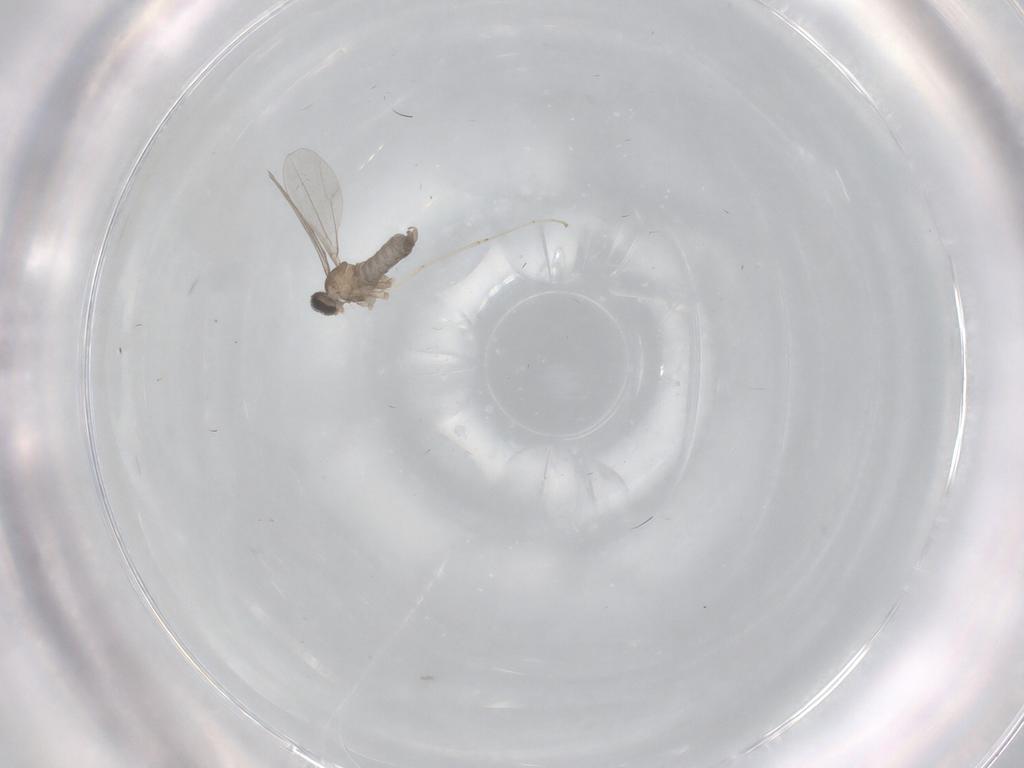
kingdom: Animalia
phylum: Arthropoda
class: Insecta
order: Diptera
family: Cecidomyiidae
